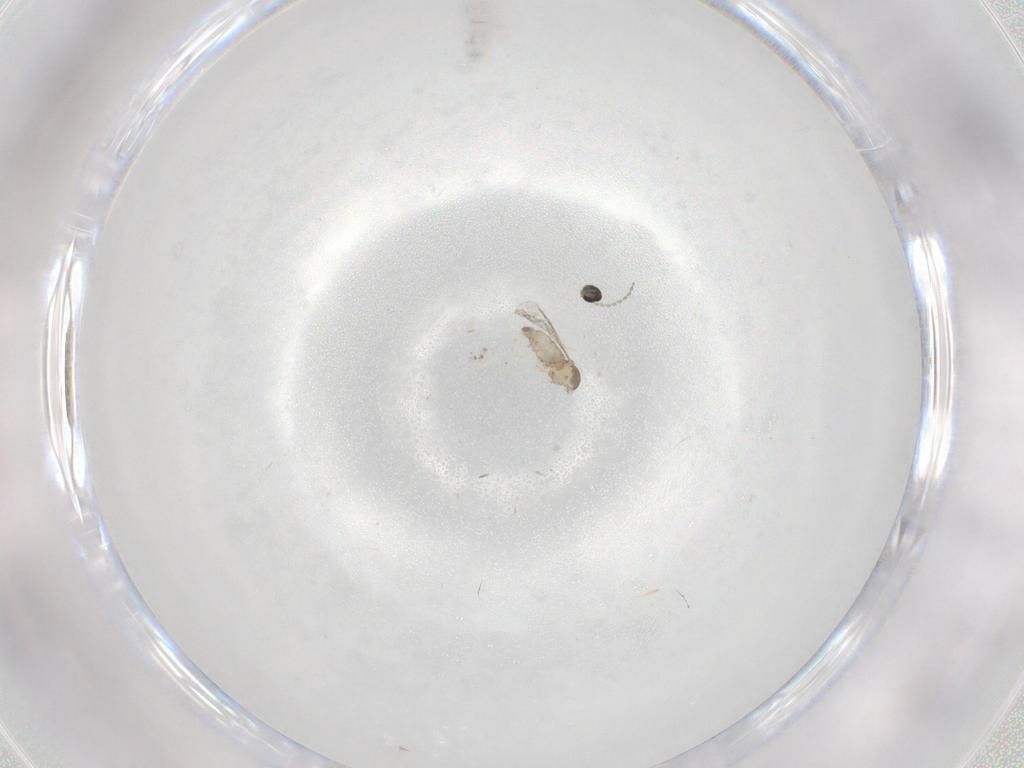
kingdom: Animalia
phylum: Arthropoda
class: Insecta
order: Diptera
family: Cecidomyiidae
